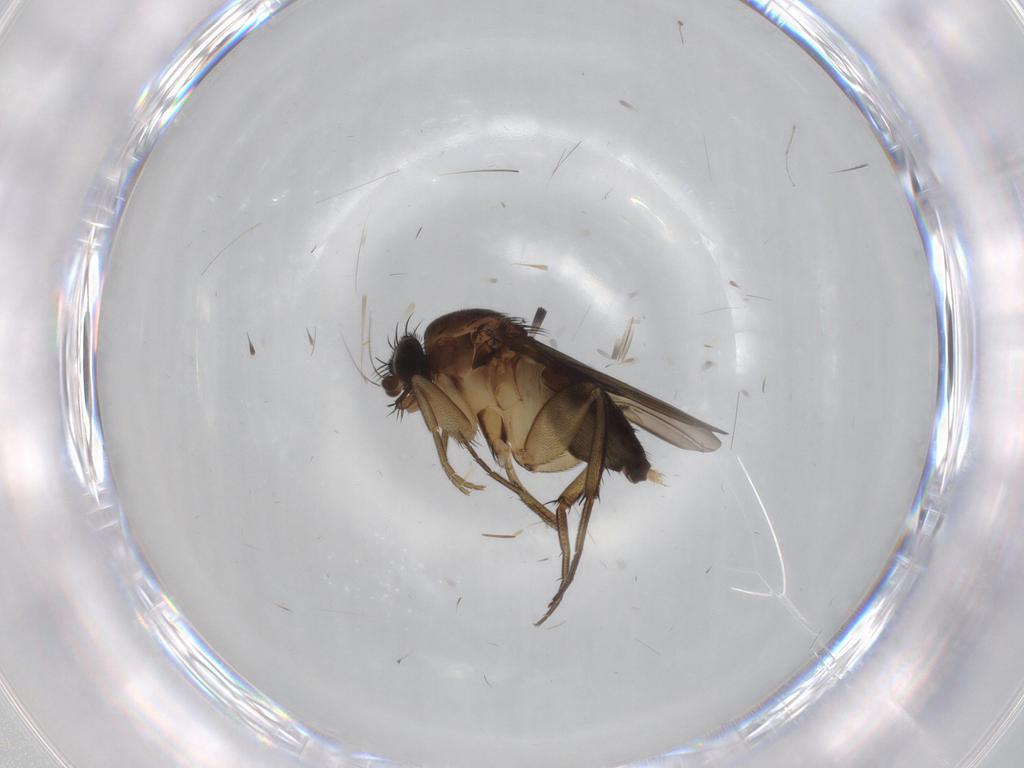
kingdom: Animalia
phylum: Arthropoda
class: Insecta
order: Diptera
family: Phoridae
